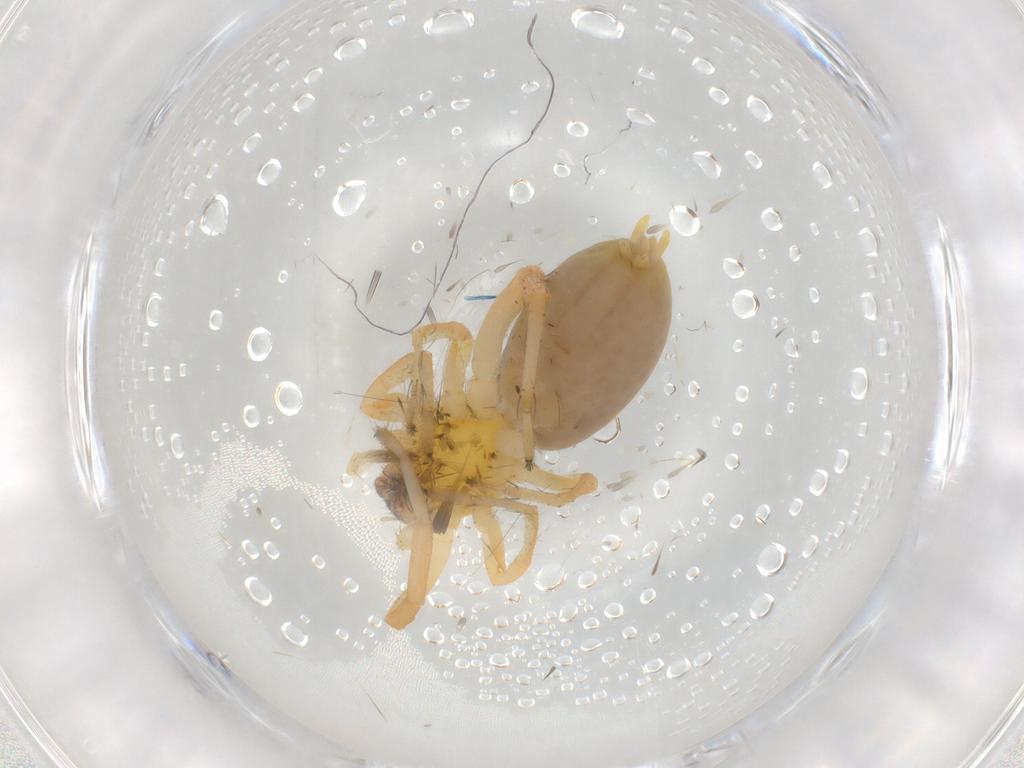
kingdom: Animalia
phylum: Arthropoda
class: Arachnida
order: Araneae
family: Anyphaenidae
